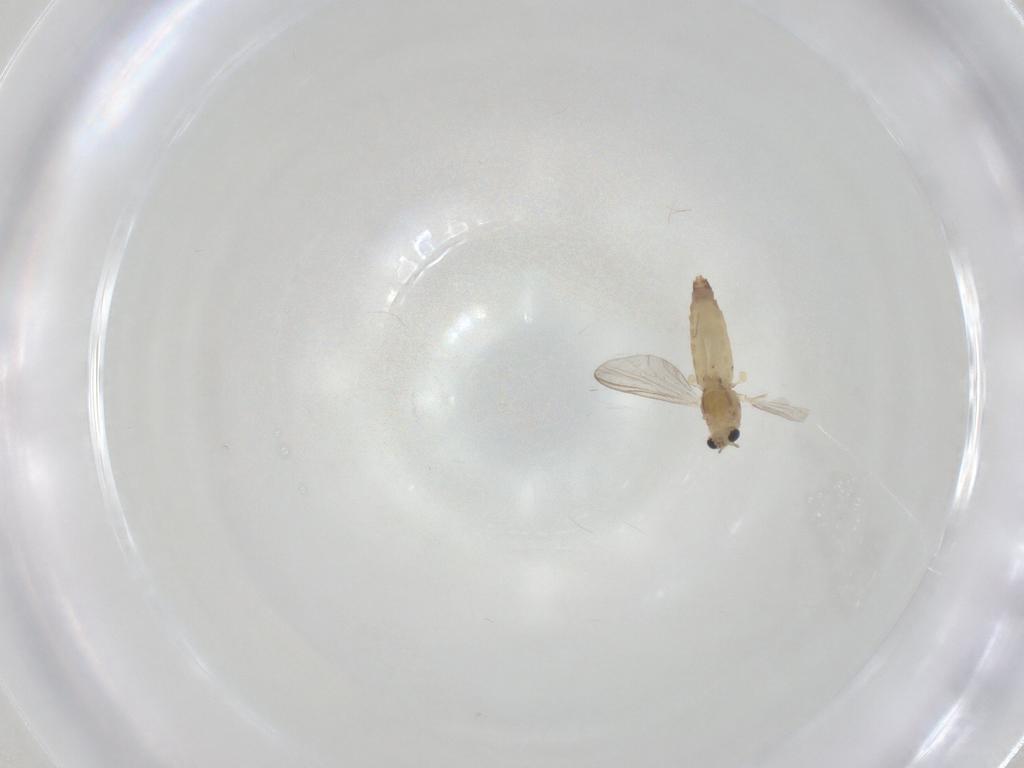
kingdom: Animalia
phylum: Arthropoda
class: Insecta
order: Diptera
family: Chironomidae
